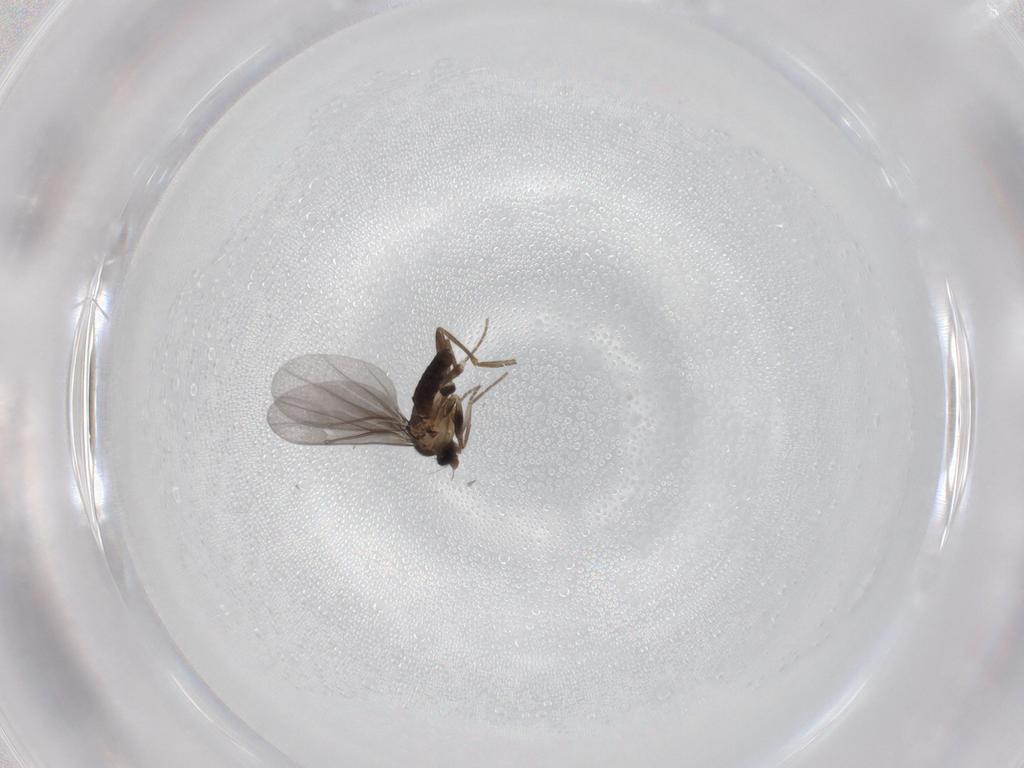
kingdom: Animalia
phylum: Arthropoda
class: Insecta
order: Diptera
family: Phoridae
